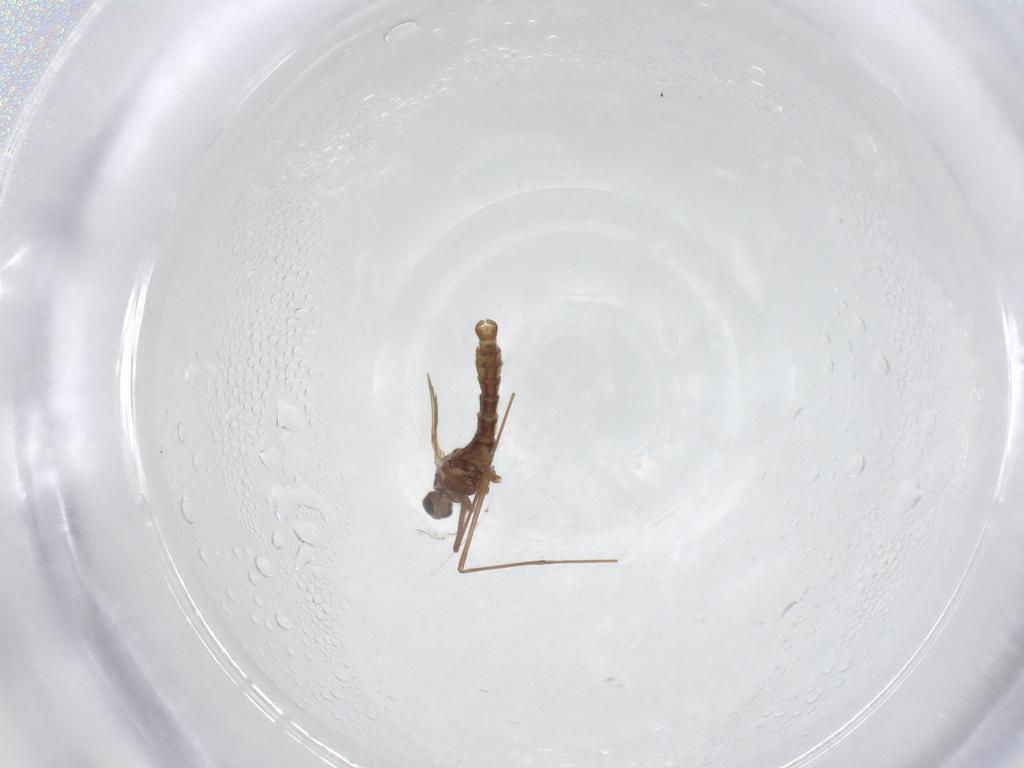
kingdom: Animalia
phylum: Arthropoda
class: Insecta
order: Diptera
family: Cecidomyiidae
